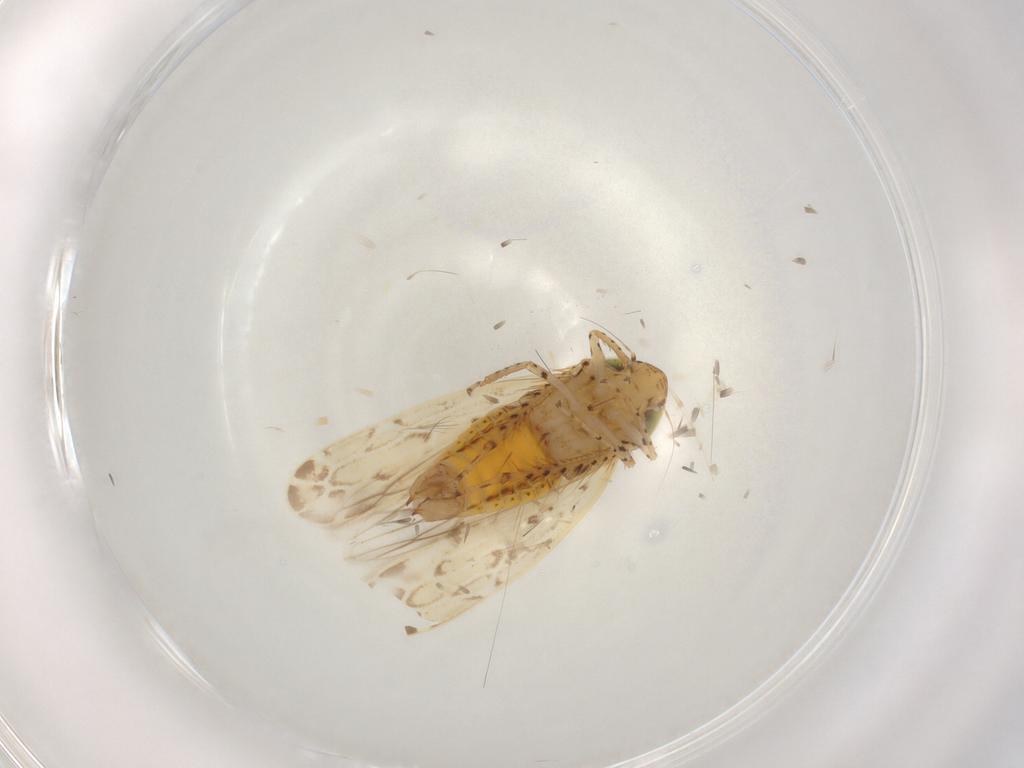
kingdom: Animalia
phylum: Arthropoda
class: Insecta
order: Hemiptera
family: Cicadellidae
